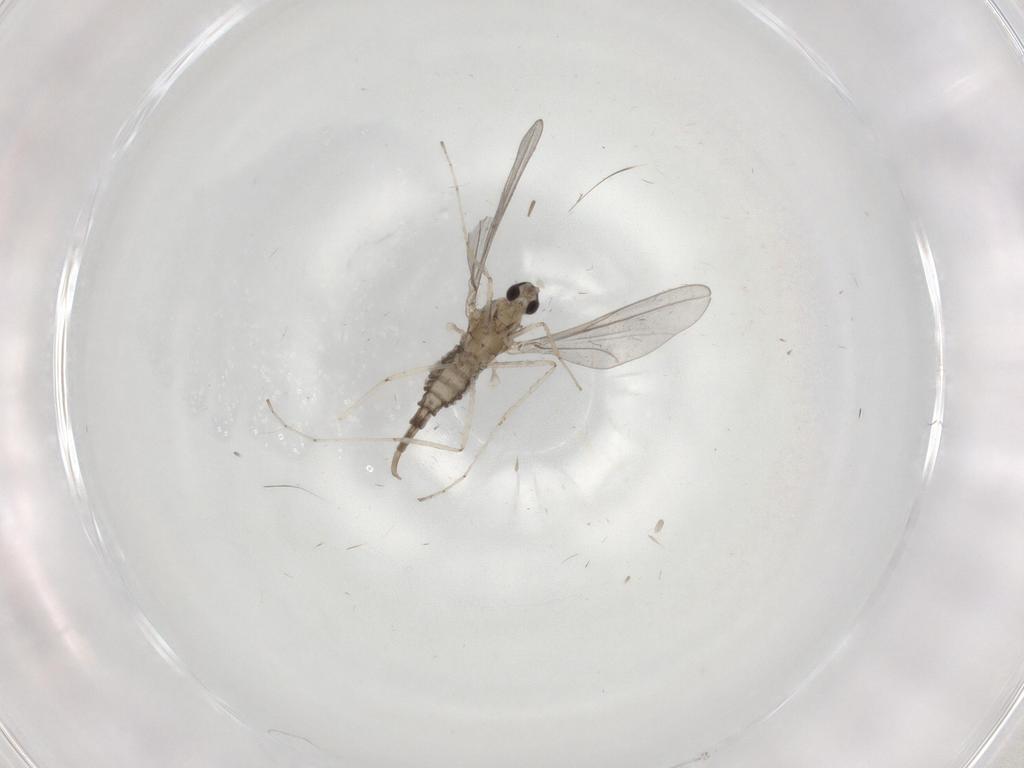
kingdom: Animalia
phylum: Arthropoda
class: Insecta
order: Diptera
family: Cecidomyiidae
